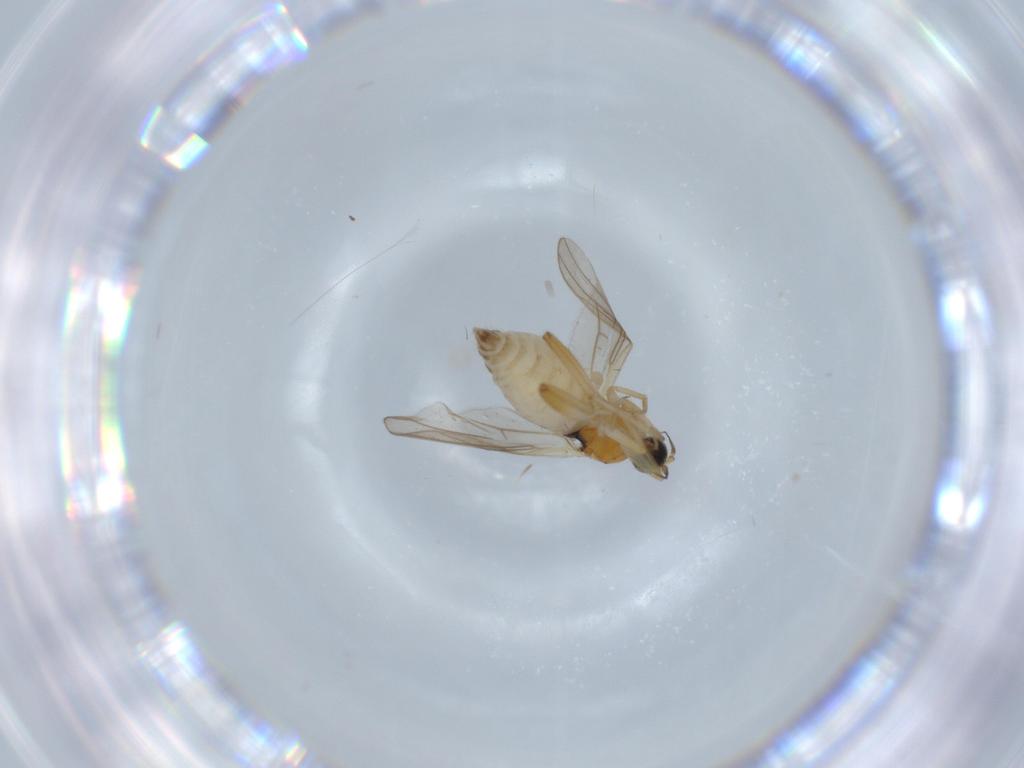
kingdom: Animalia
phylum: Arthropoda
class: Insecta
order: Diptera
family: Hybotidae
